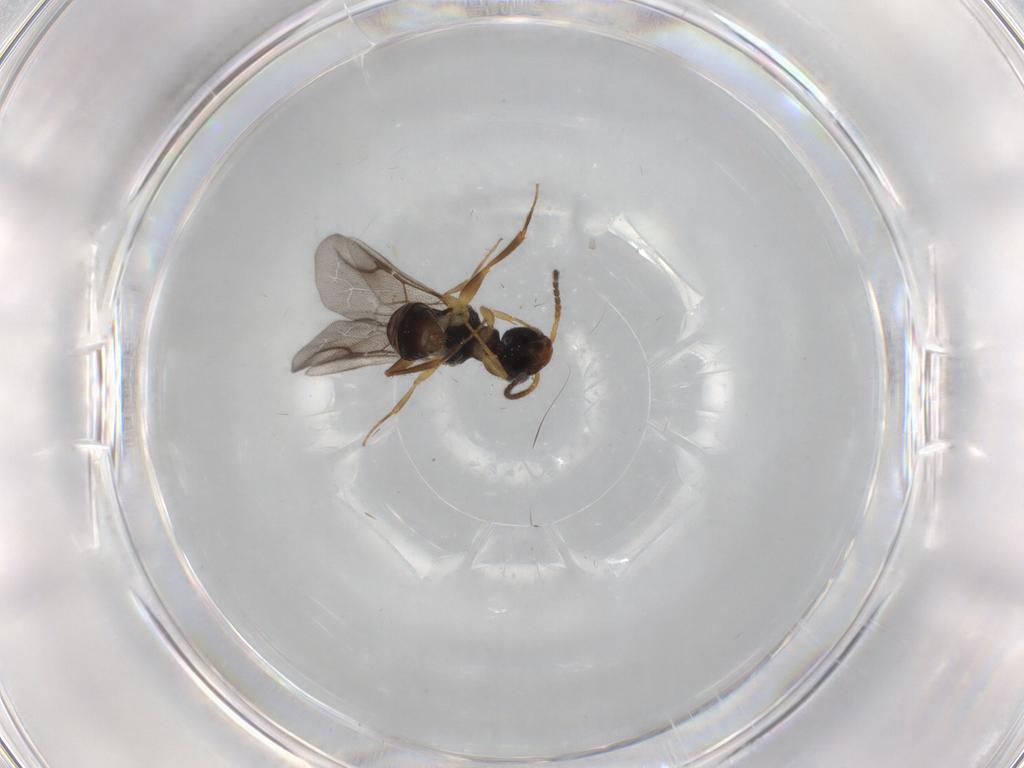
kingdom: Animalia
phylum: Arthropoda
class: Insecta
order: Hymenoptera
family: Bethylidae
